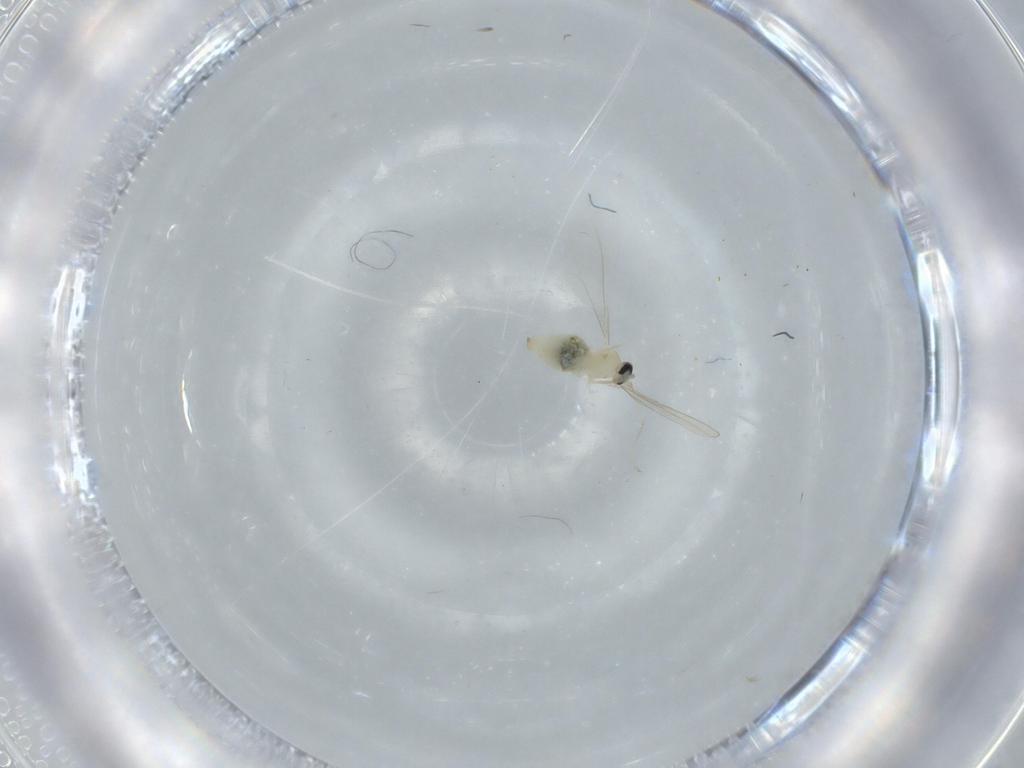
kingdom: Animalia
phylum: Arthropoda
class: Insecta
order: Diptera
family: Cecidomyiidae
